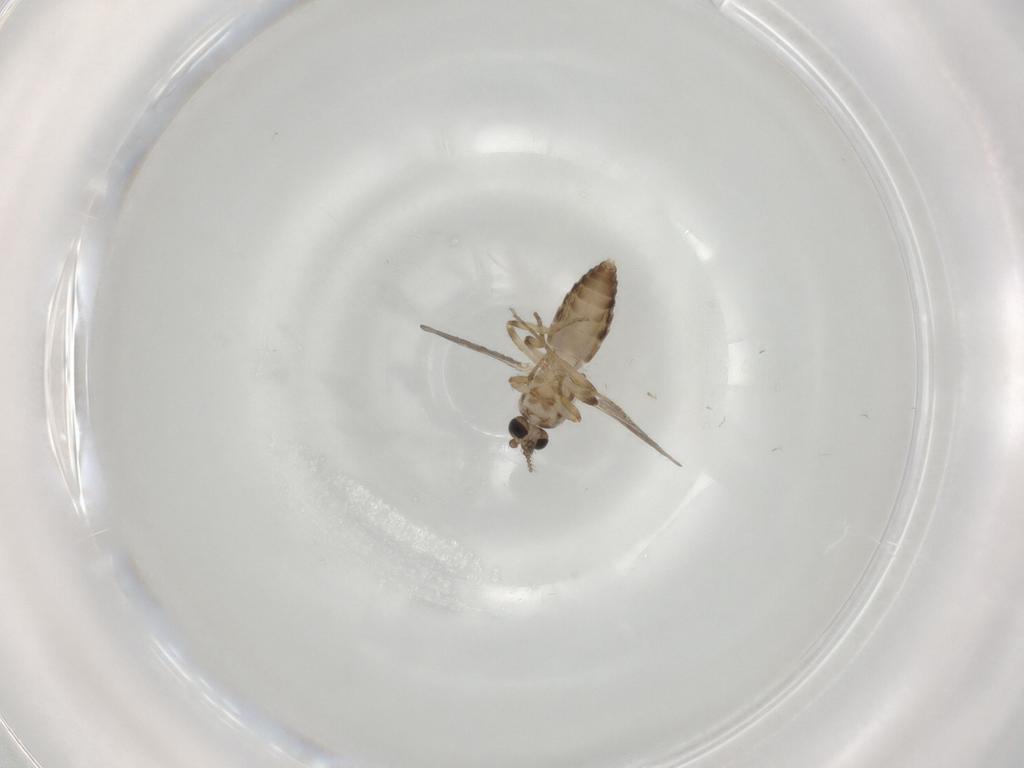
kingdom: Animalia
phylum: Arthropoda
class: Insecta
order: Diptera
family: Ceratopogonidae
